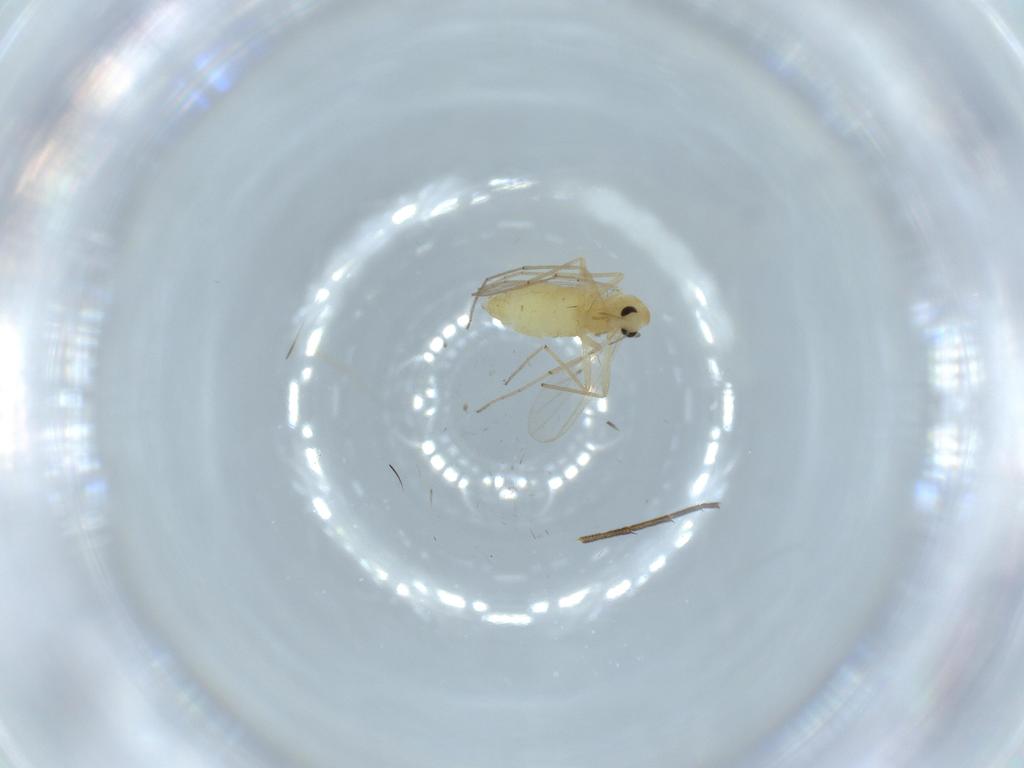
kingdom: Animalia
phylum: Arthropoda
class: Insecta
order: Diptera
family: Chironomidae
